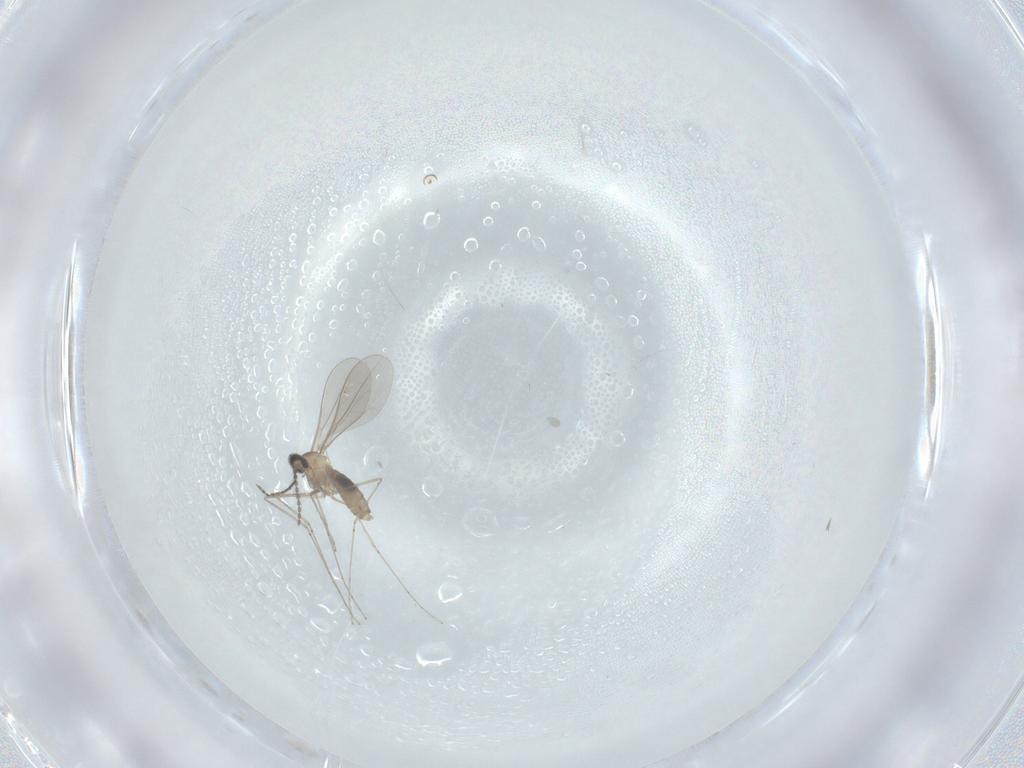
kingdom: Animalia
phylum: Arthropoda
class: Insecta
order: Diptera
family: Cecidomyiidae
